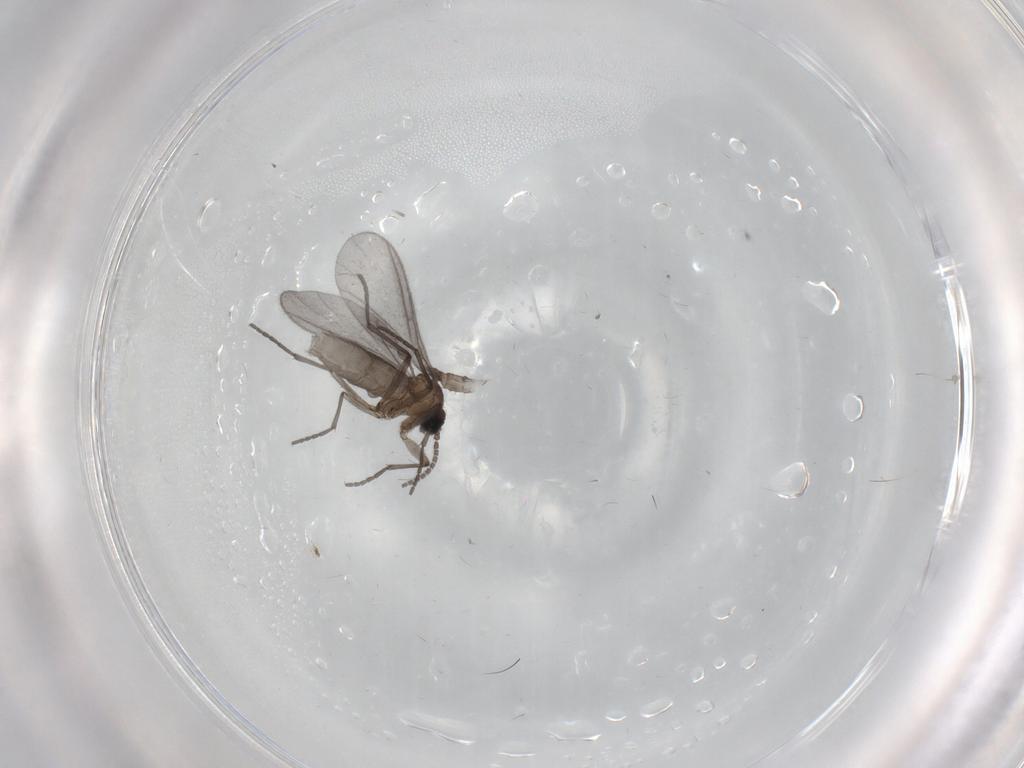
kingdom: Animalia
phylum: Arthropoda
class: Insecta
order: Diptera
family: Sciaridae
